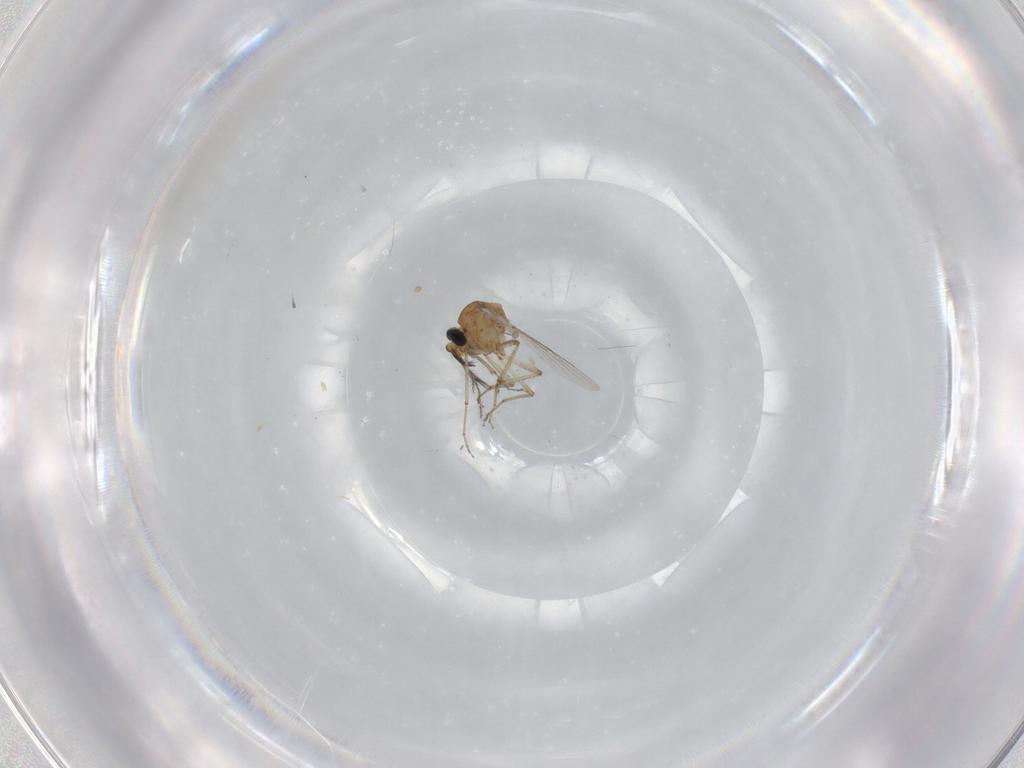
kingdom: Animalia
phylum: Arthropoda
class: Insecta
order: Diptera
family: Ceratopogonidae
